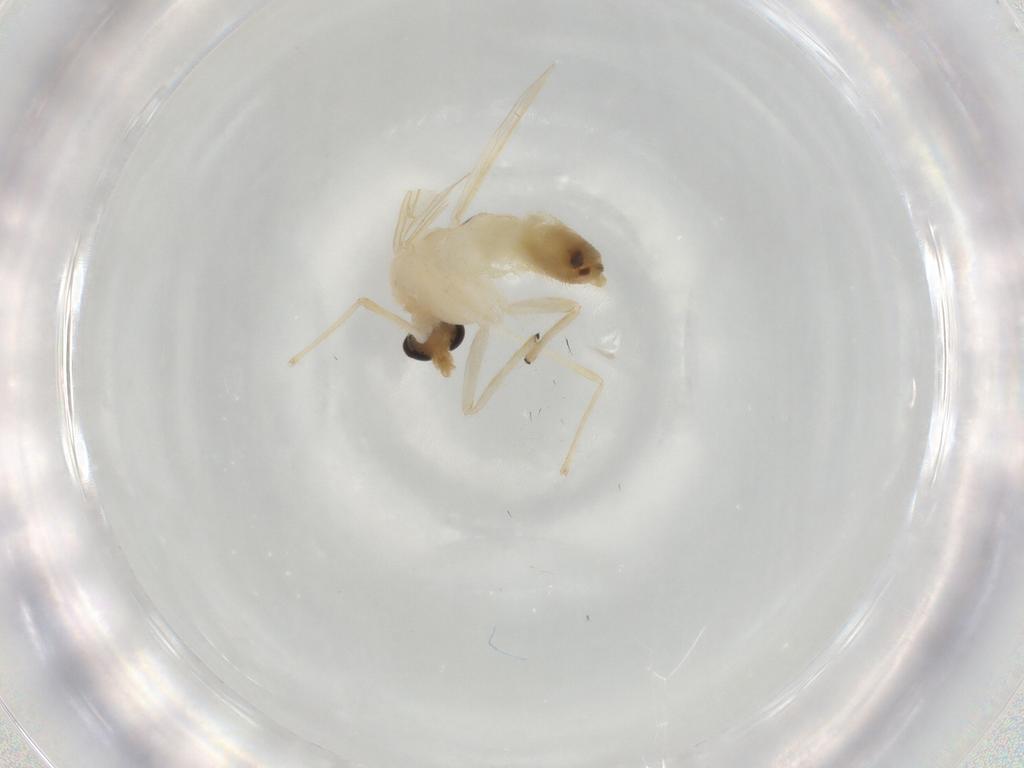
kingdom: Animalia
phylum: Arthropoda
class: Insecta
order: Diptera
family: Chironomidae
